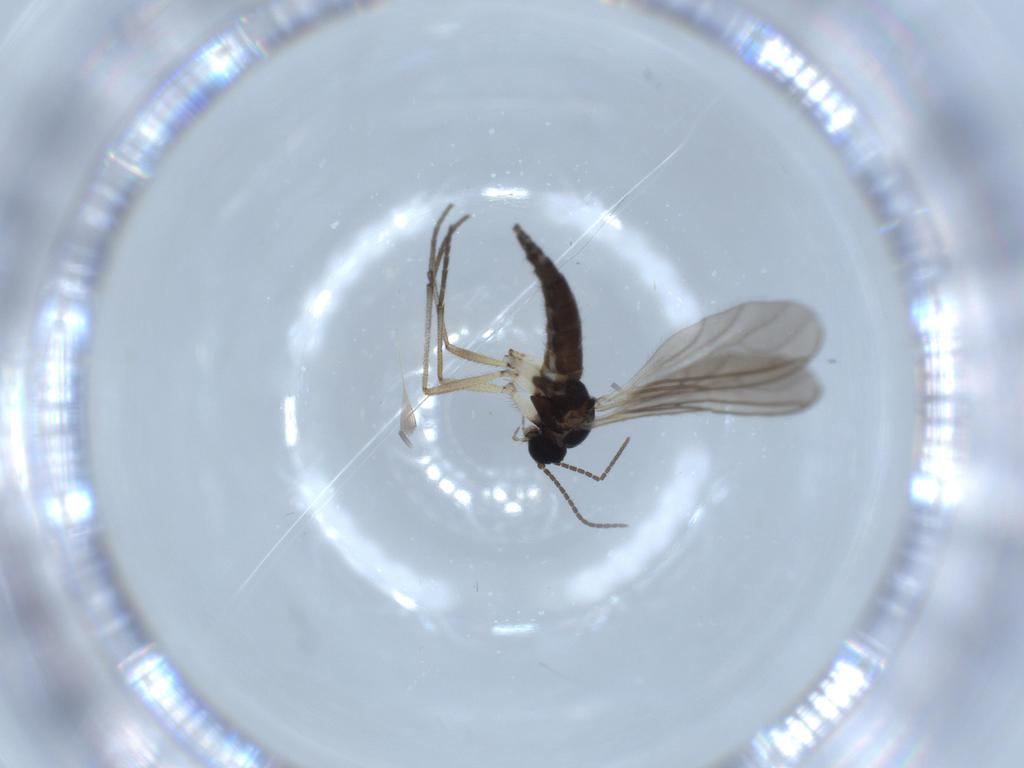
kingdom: Animalia
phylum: Arthropoda
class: Insecta
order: Diptera
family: Sciaridae
